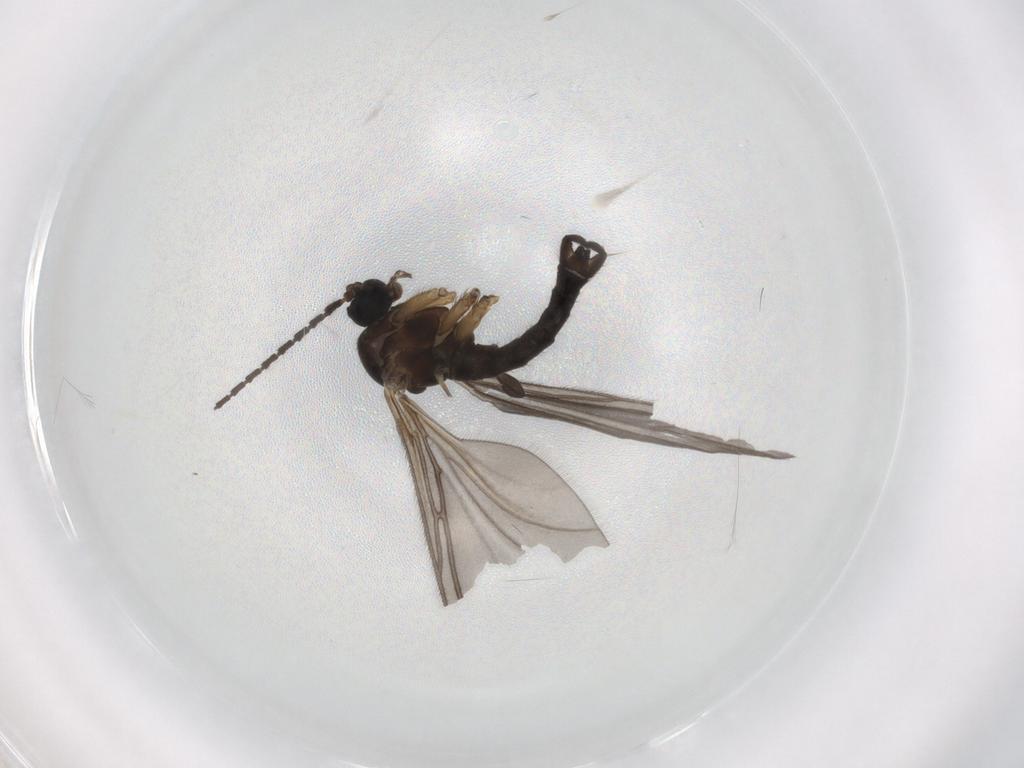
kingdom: Animalia
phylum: Arthropoda
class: Insecta
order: Diptera
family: Sciaridae
